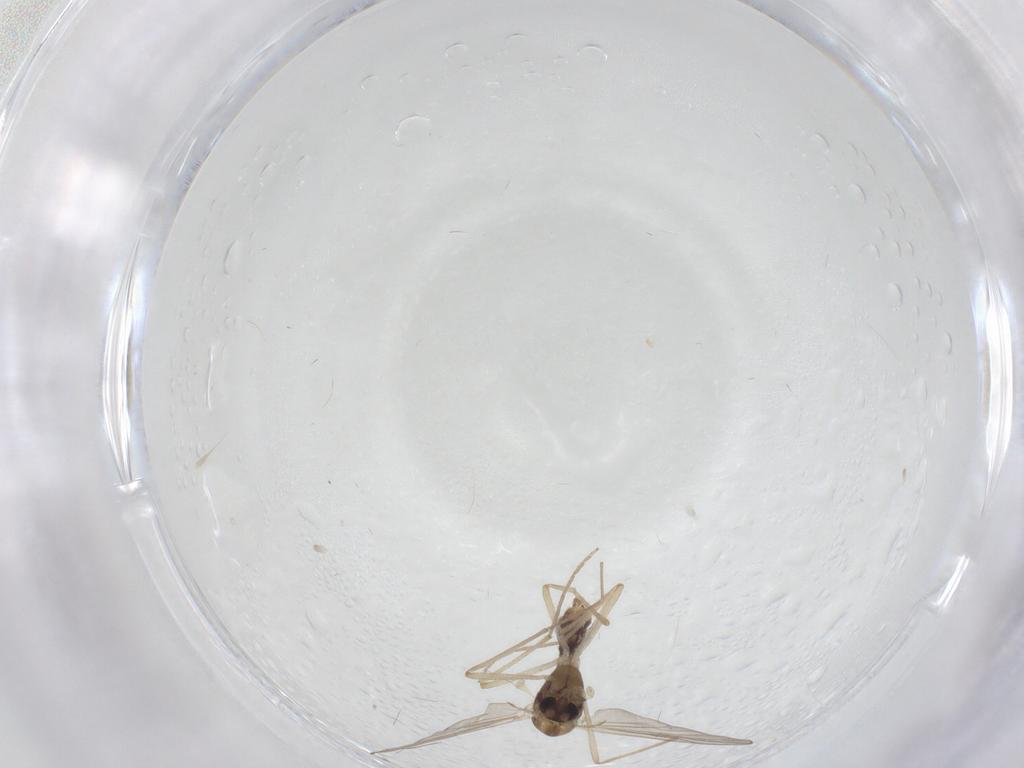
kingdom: Animalia
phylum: Arthropoda
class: Insecta
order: Diptera
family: Chironomidae
